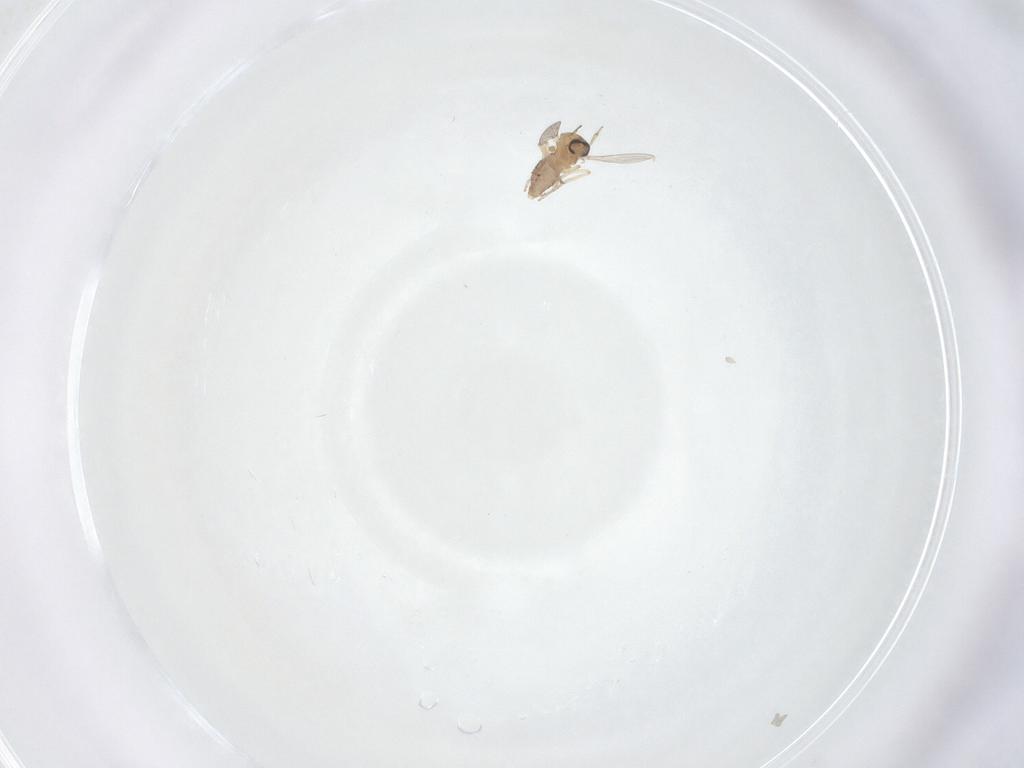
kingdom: Animalia
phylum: Arthropoda
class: Insecta
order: Diptera
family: Ceratopogonidae
